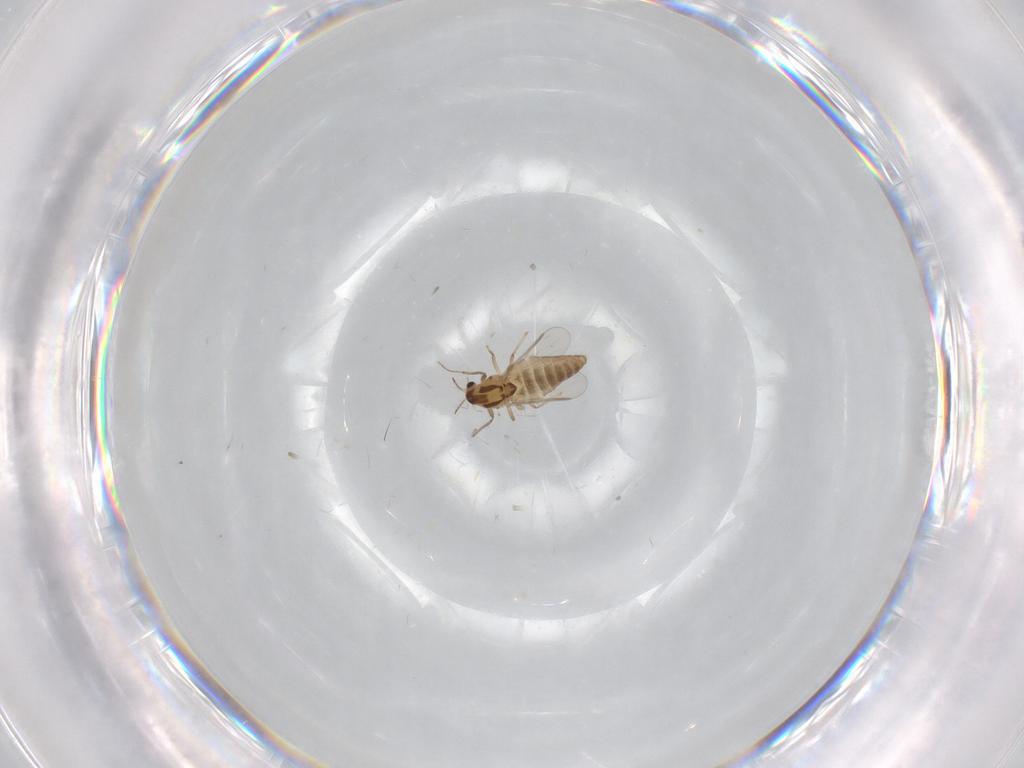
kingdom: Animalia
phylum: Arthropoda
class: Insecta
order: Diptera
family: Chironomidae
